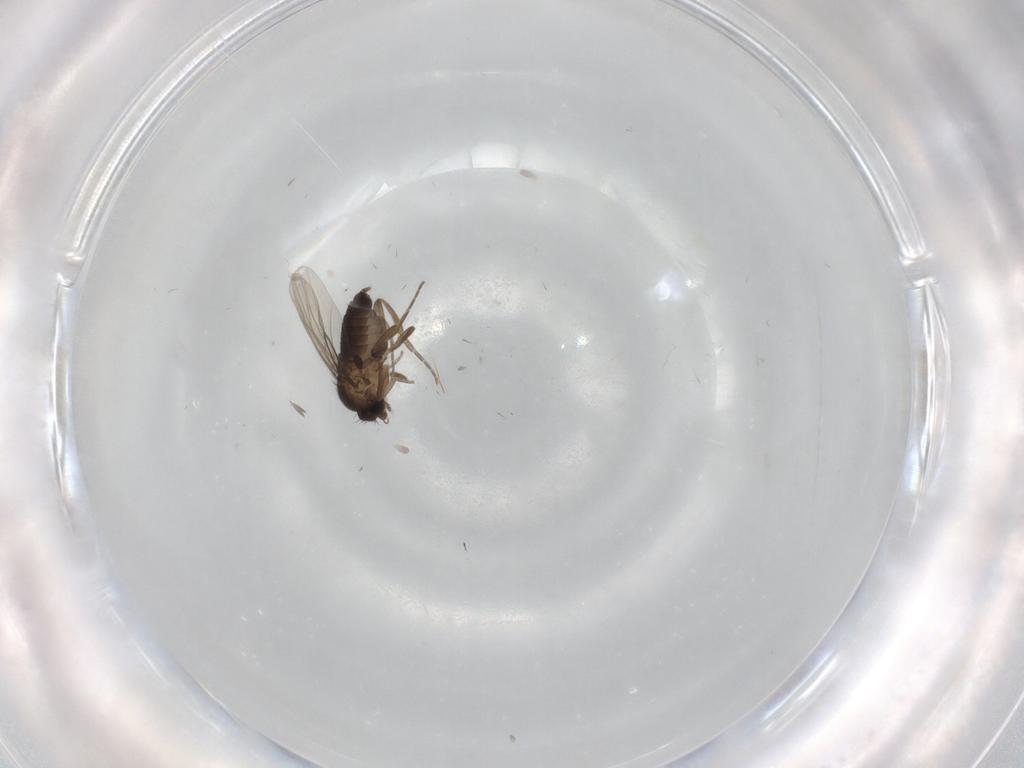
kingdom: Animalia
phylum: Arthropoda
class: Insecta
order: Diptera
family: Phoridae
